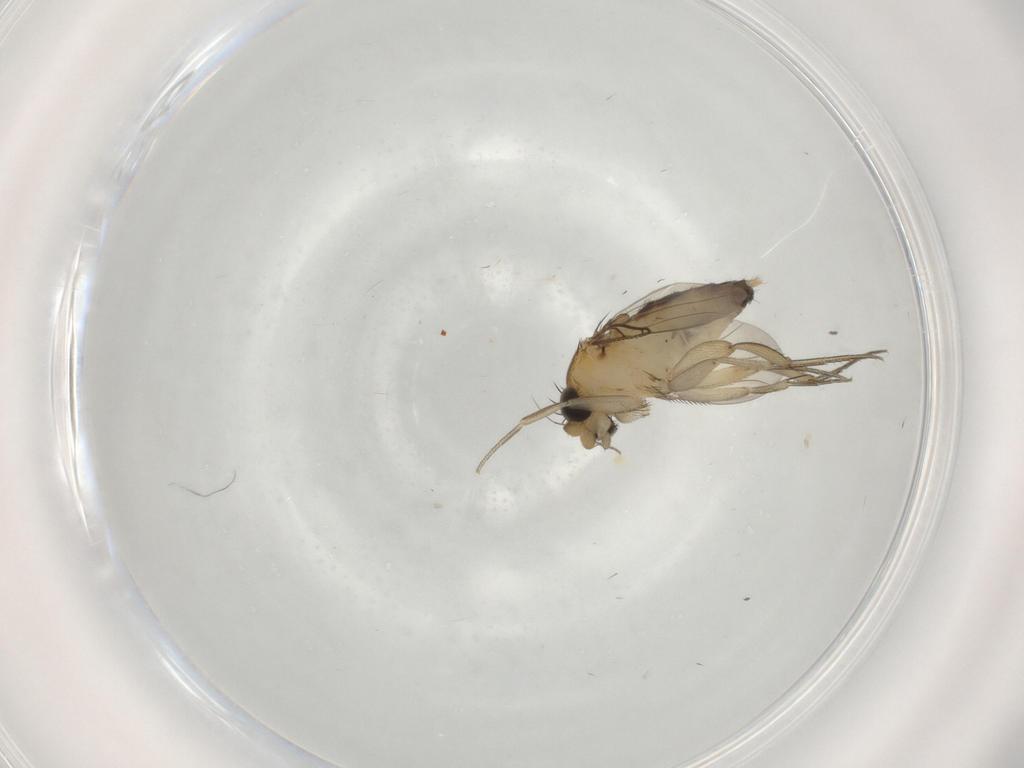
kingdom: Animalia
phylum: Arthropoda
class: Insecta
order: Diptera
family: Phoridae
